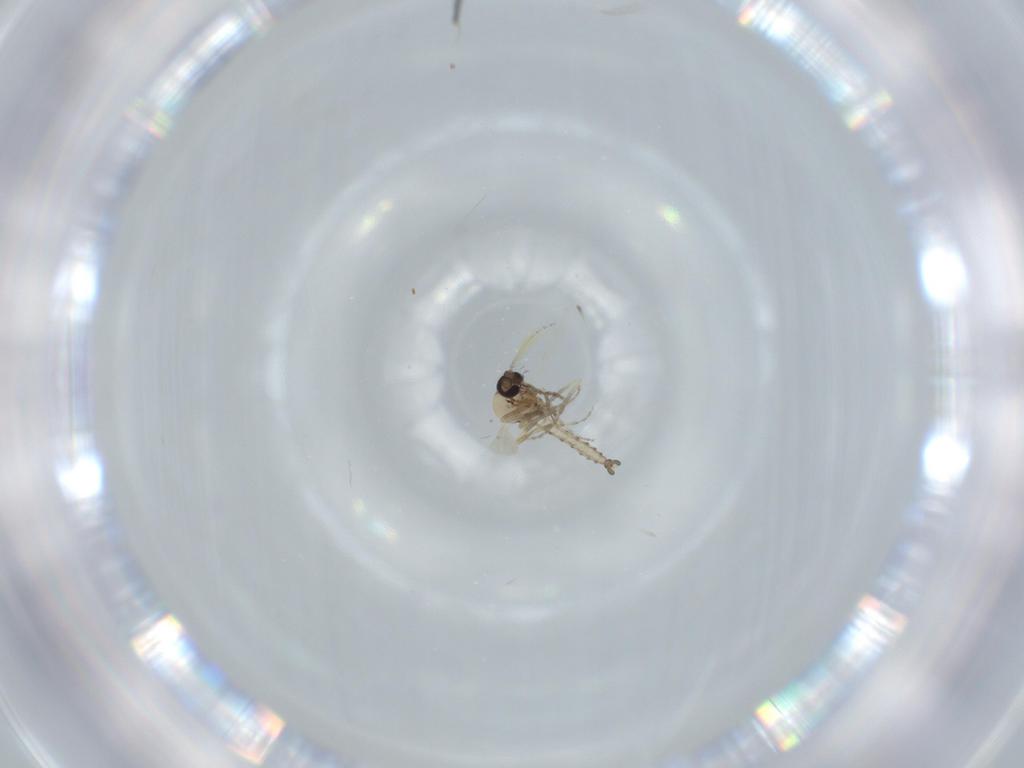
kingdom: Animalia
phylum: Arthropoda
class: Insecta
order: Diptera
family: Ceratopogonidae
